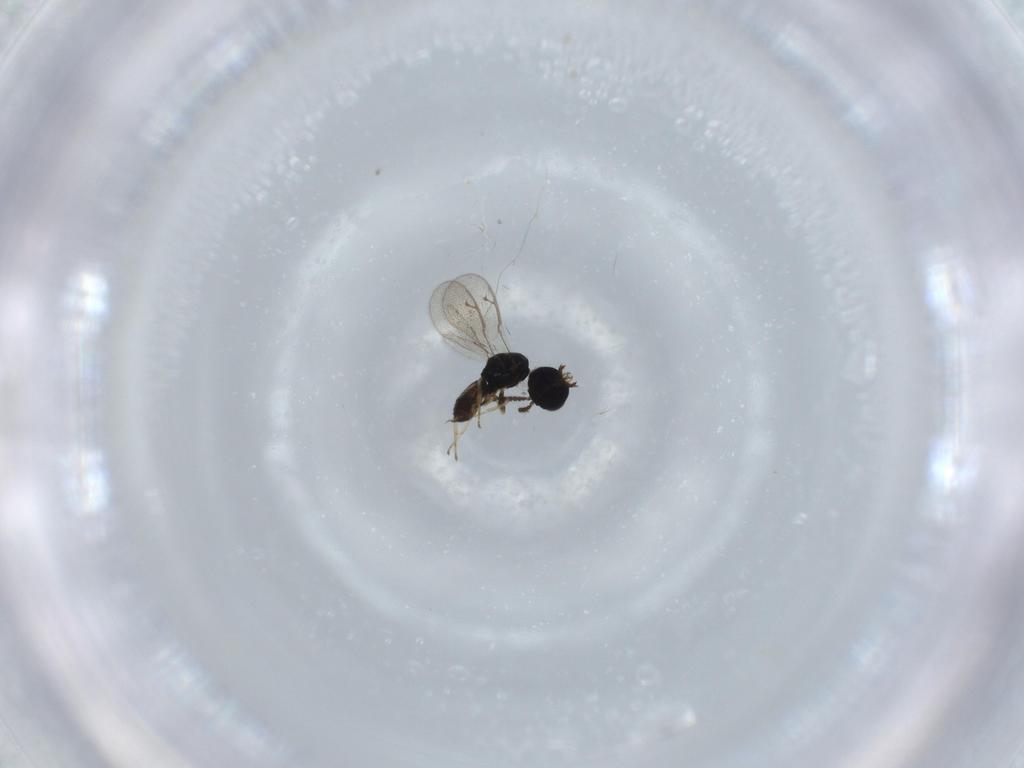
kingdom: Animalia
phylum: Arthropoda
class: Insecta
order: Hymenoptera
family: Pteromalidae
